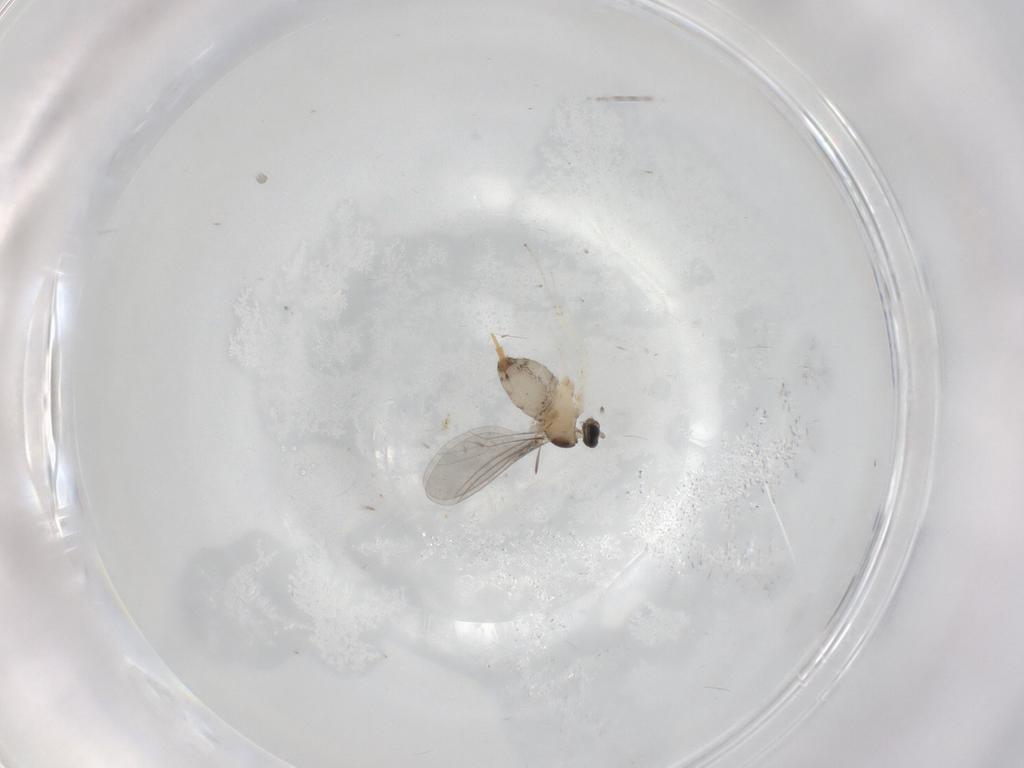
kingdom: Animalia
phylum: Arthropoda
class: Insecta
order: Diptera
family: Cecidomyiidae
